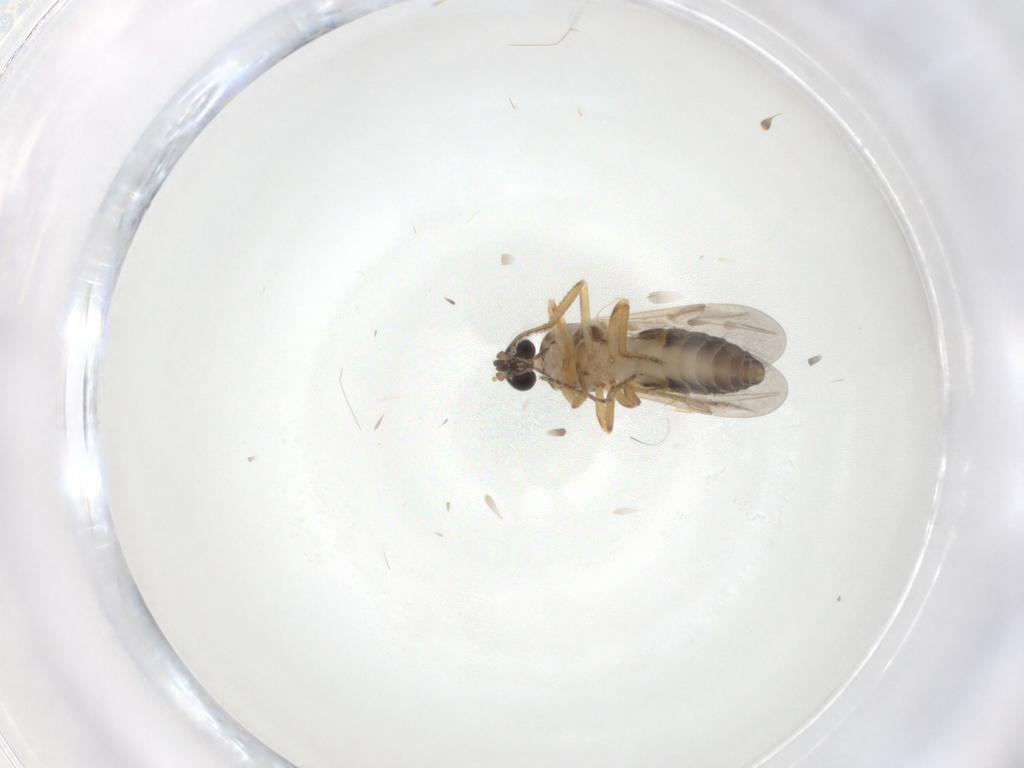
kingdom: Animalia
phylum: Arthropoda
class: Insecta
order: Diptera
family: Ceratopogonidae
